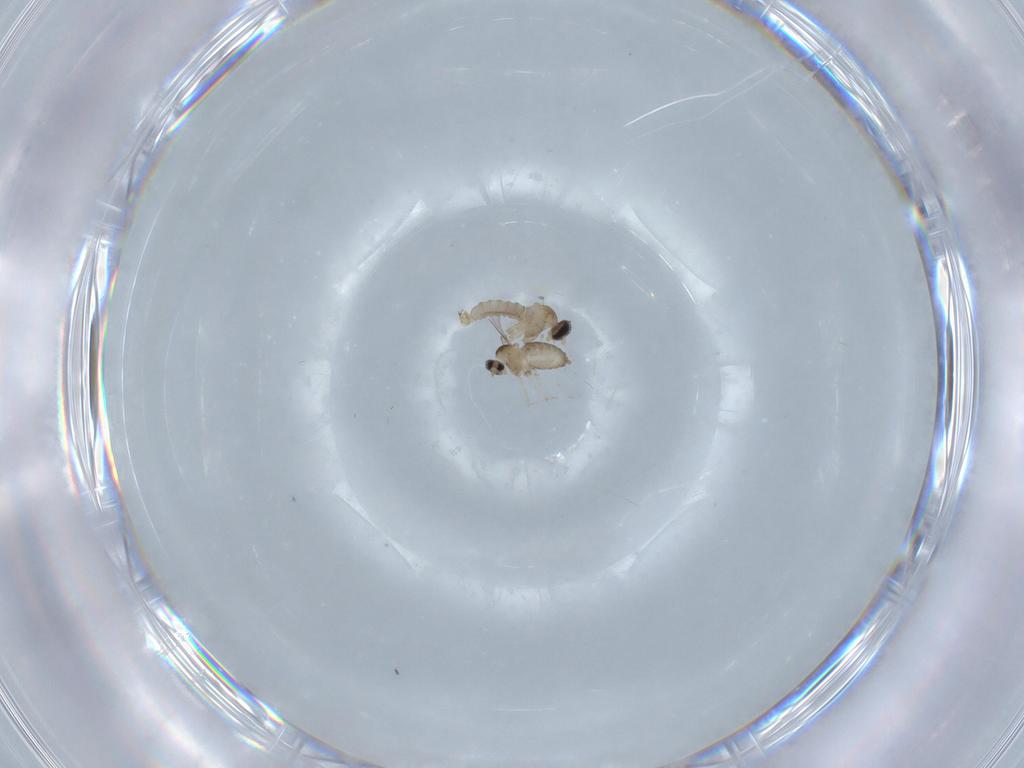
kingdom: Animalia
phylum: Arthropoda
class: Insecta
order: Diptera
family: Cecidomyiidae
